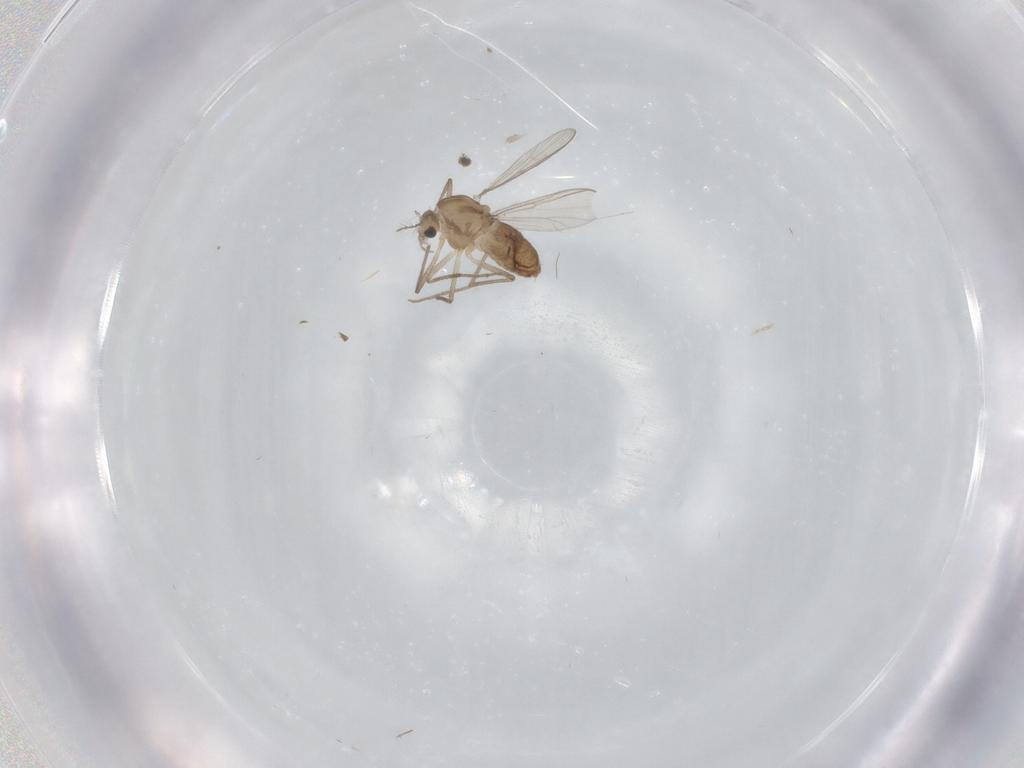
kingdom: Animalia
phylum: Arthropoda
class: Insecta
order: Diptera
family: Chironomidae
